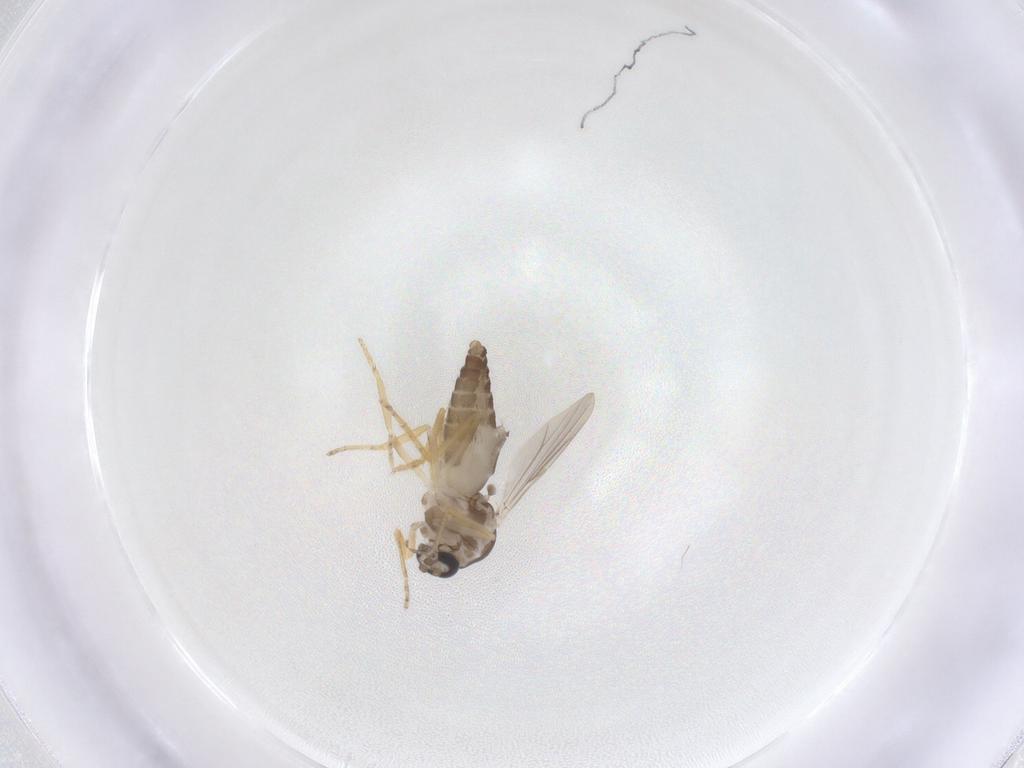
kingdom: Animalia
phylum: Arthropoda
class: Insecta
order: Diptera
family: Ceratopogonidae
